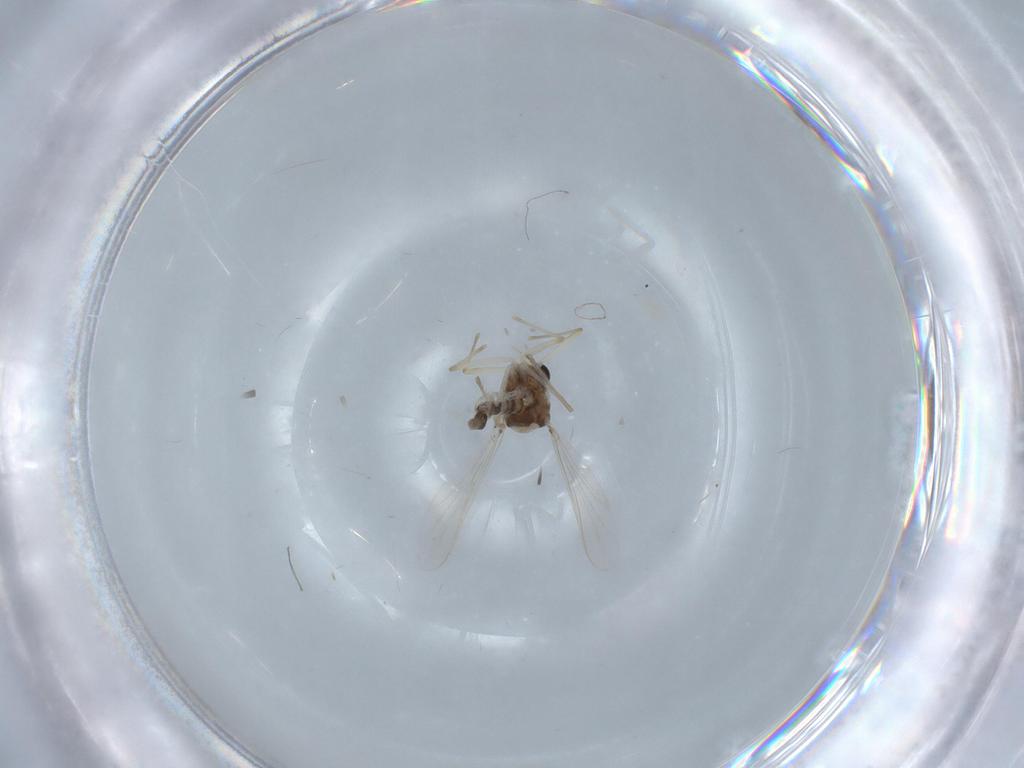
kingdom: Animalia
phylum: Arthropoda
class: Insecta
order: Diptera
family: Chironomidae
